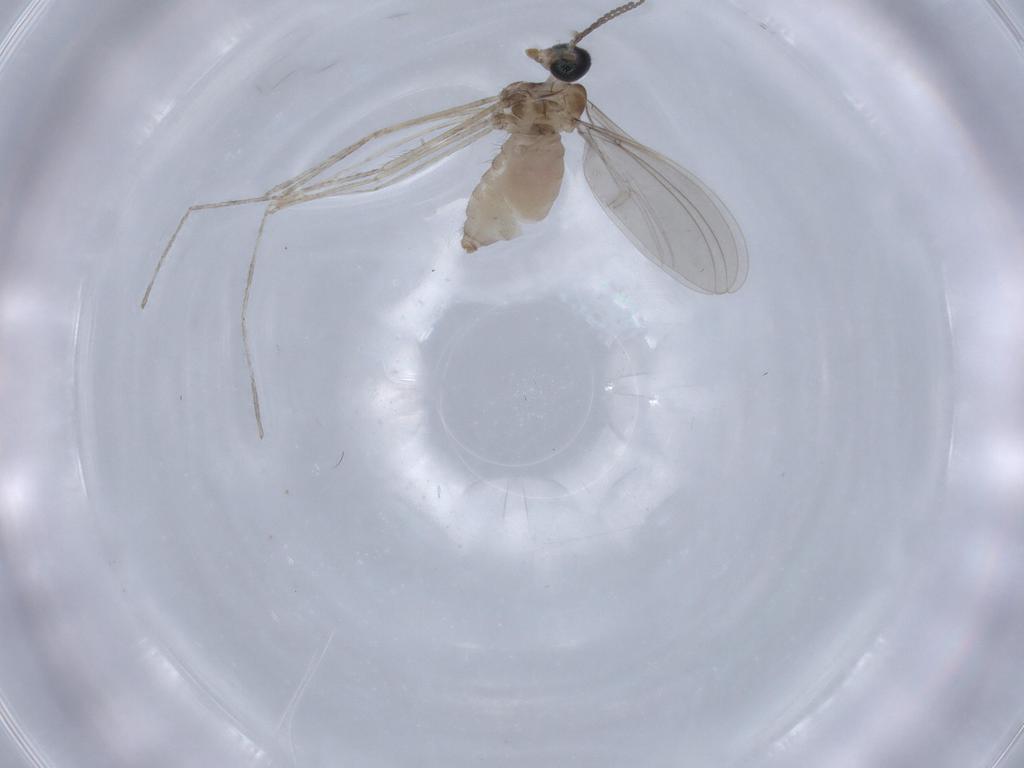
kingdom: Animalia
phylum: Arthropoda
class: Insecta
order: Diptera
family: Cecidomyiidae
